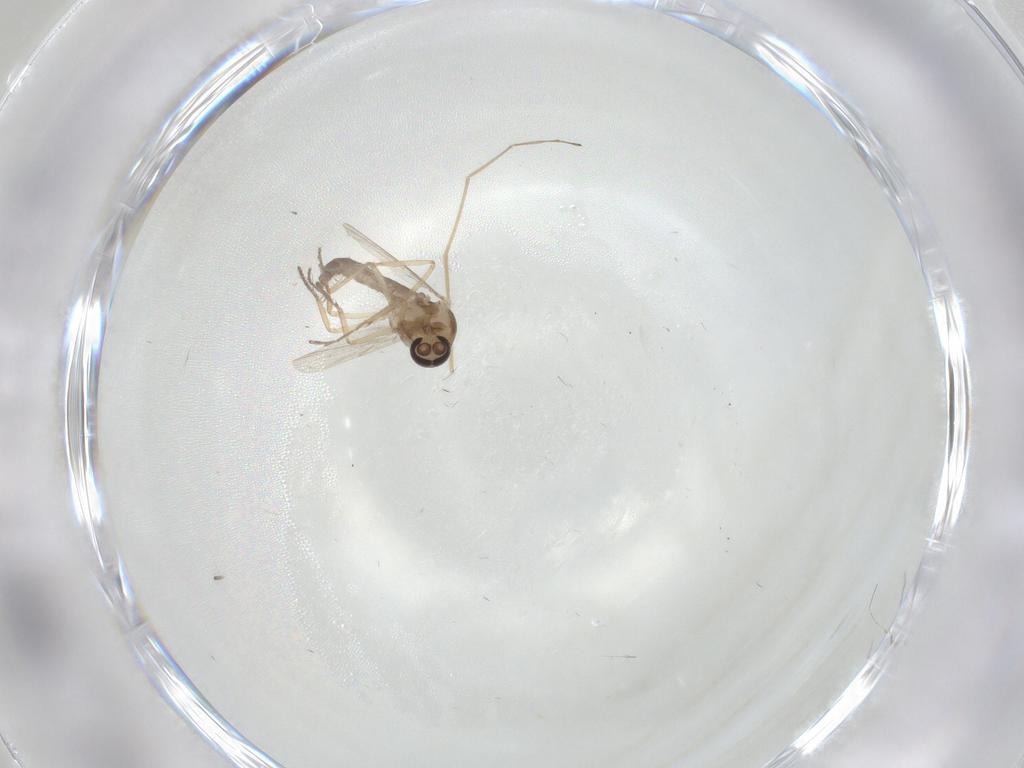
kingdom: Animalia
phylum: Arthropoda
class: Insecta
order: Diptera
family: Ceratopogonidae
